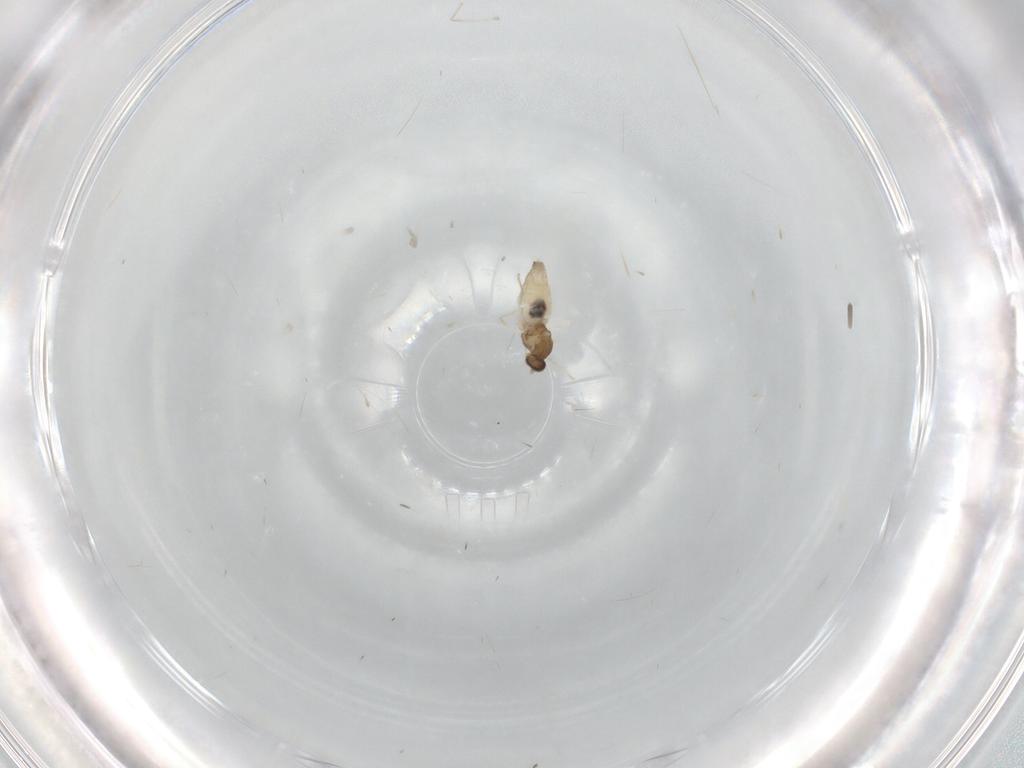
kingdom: Animalia
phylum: Arthropoda
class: Insecta
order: Diptera
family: Cecidomyiidae
